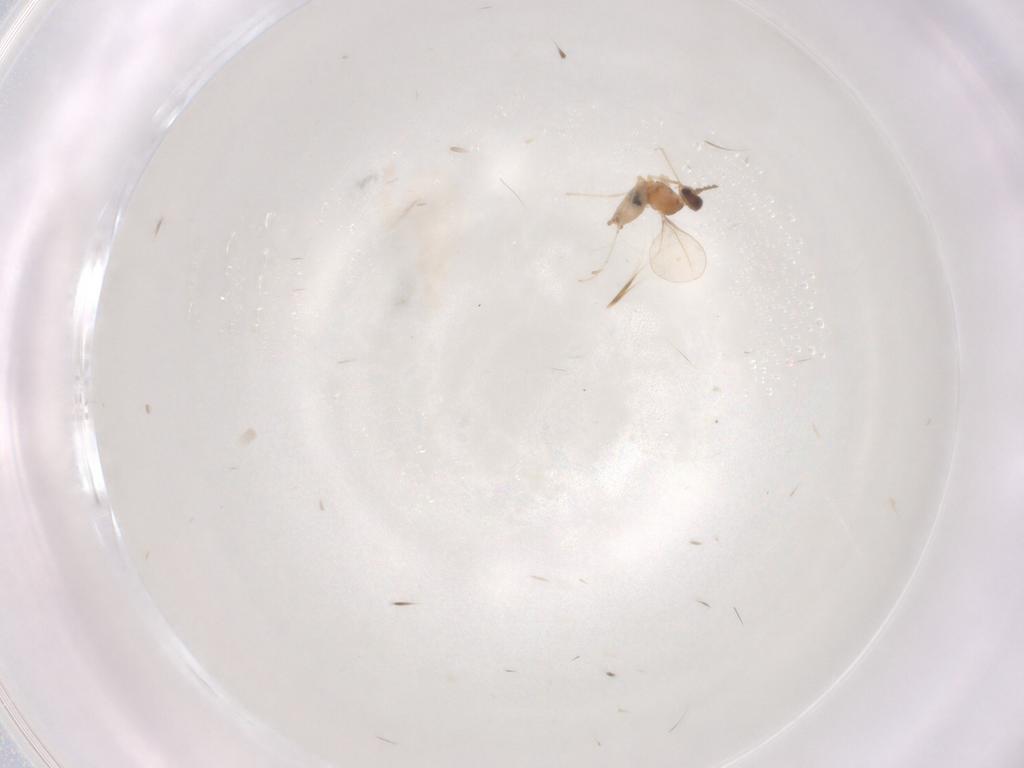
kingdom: Animalia
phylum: Arthropoda
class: Insecta
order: Diptera
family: Cecidomyiidae
